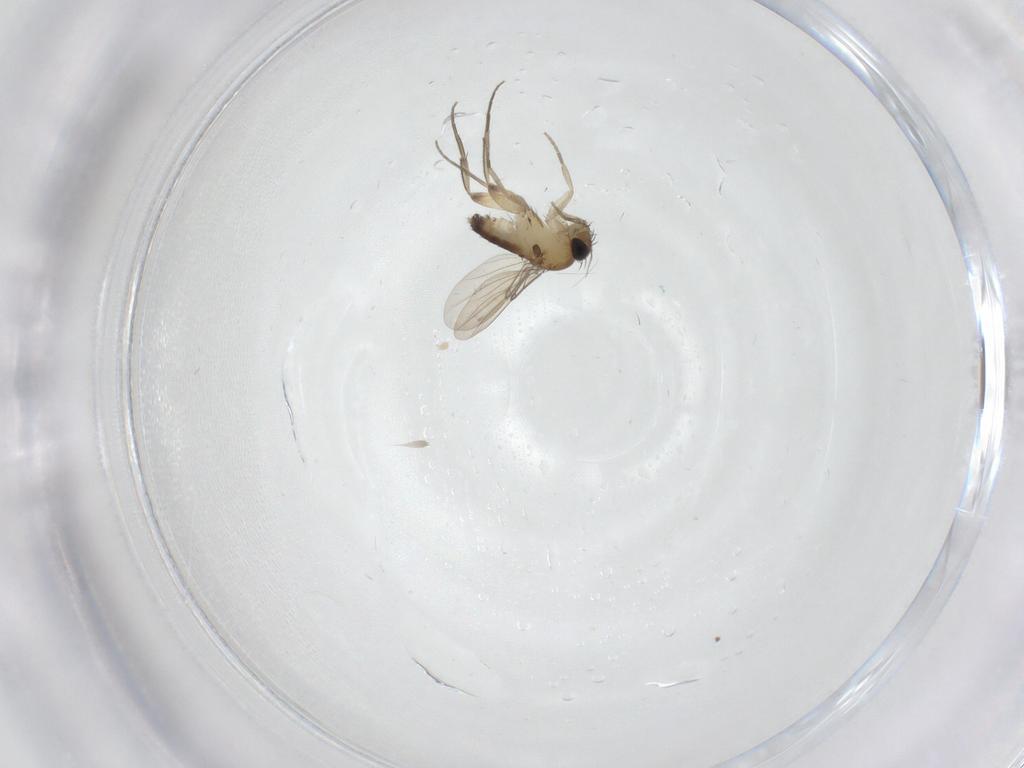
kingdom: Animalia
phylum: Arthropoda
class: Insecta
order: Diptera
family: Phoridae
